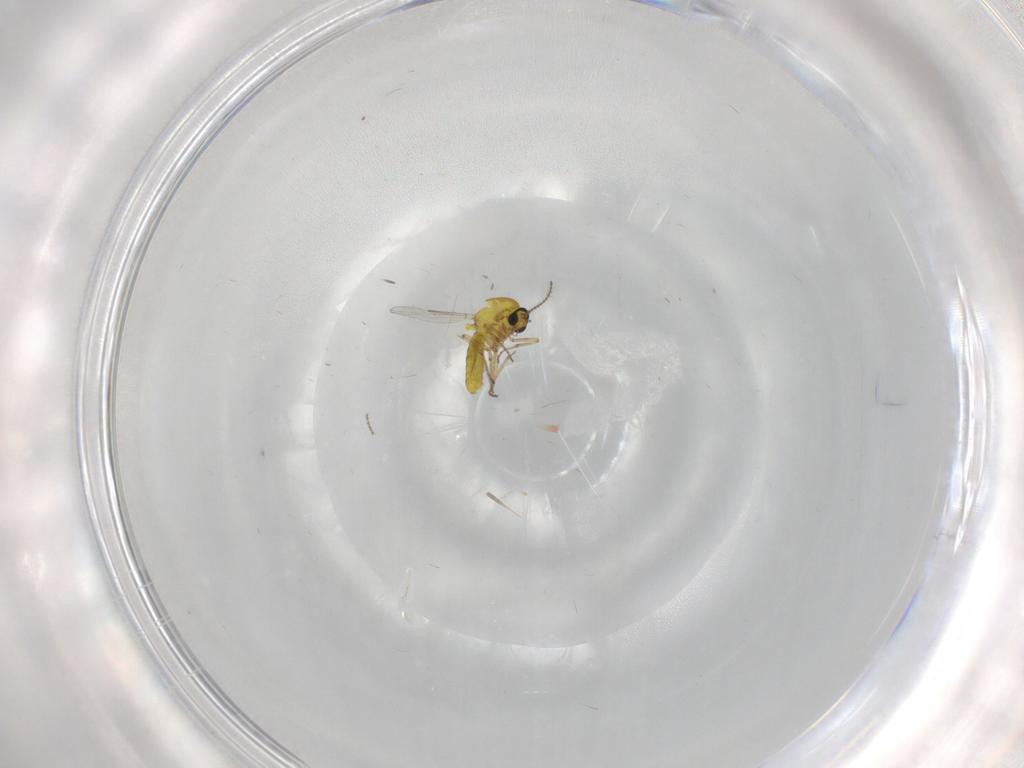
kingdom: Animalia
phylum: Arthropoda
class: Insecta
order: Diptera
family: Ceratopogonidae
